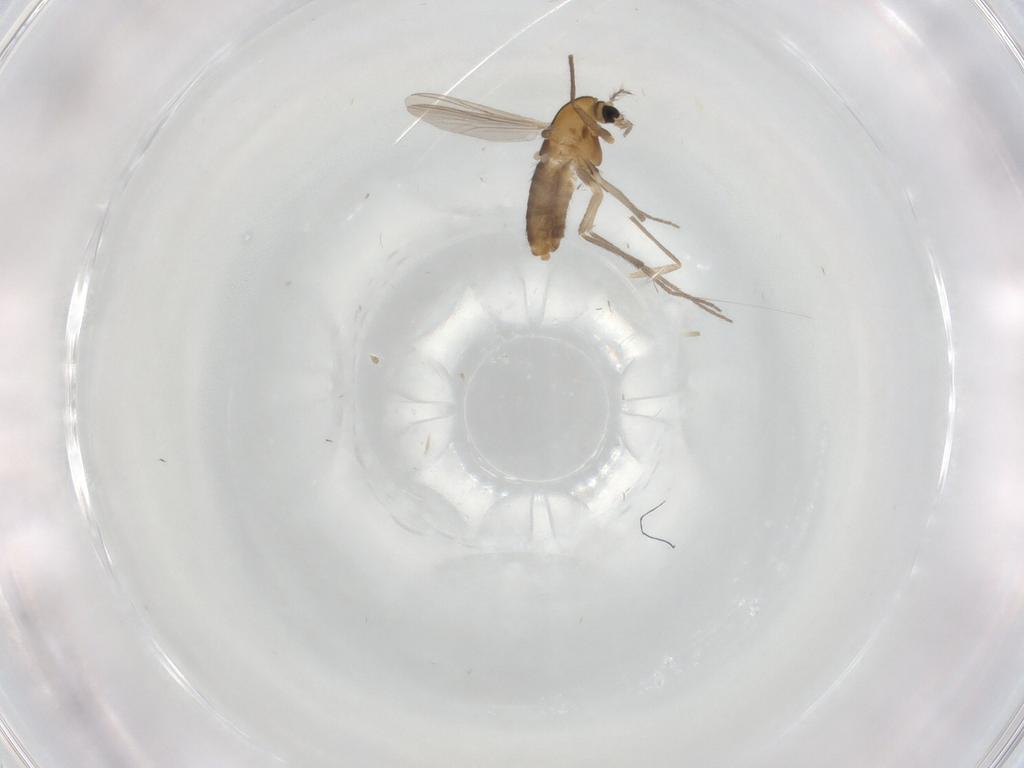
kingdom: Animalia
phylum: Arthropoda
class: Insecta
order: Diptera
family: Chironomidae
